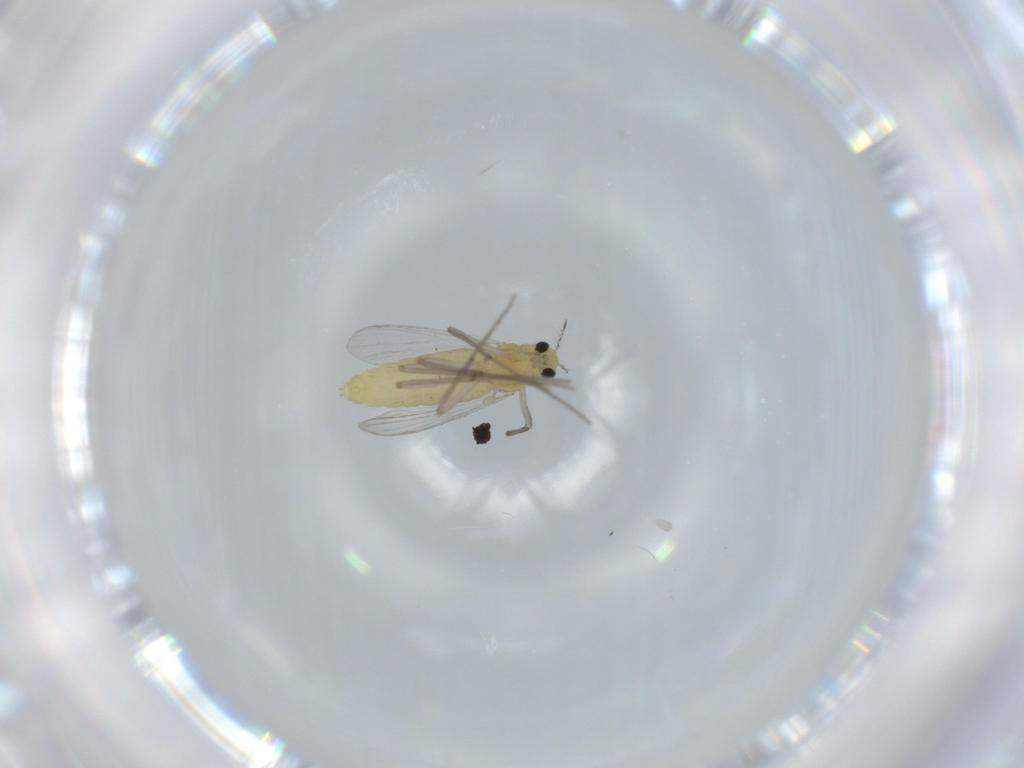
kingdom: Animalia
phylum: Arthropoda
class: Insecta
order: Diptera
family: Chironomidae
